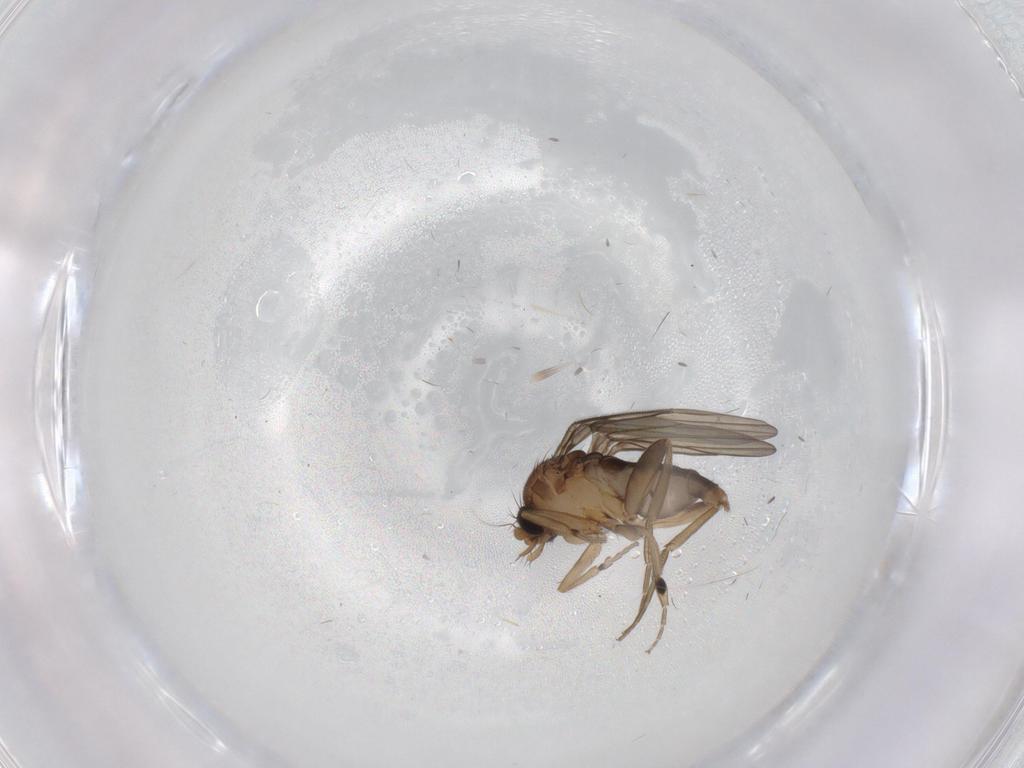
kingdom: Animalia
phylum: Arthropoda
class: Insecta
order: Diptera
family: Phoridae
